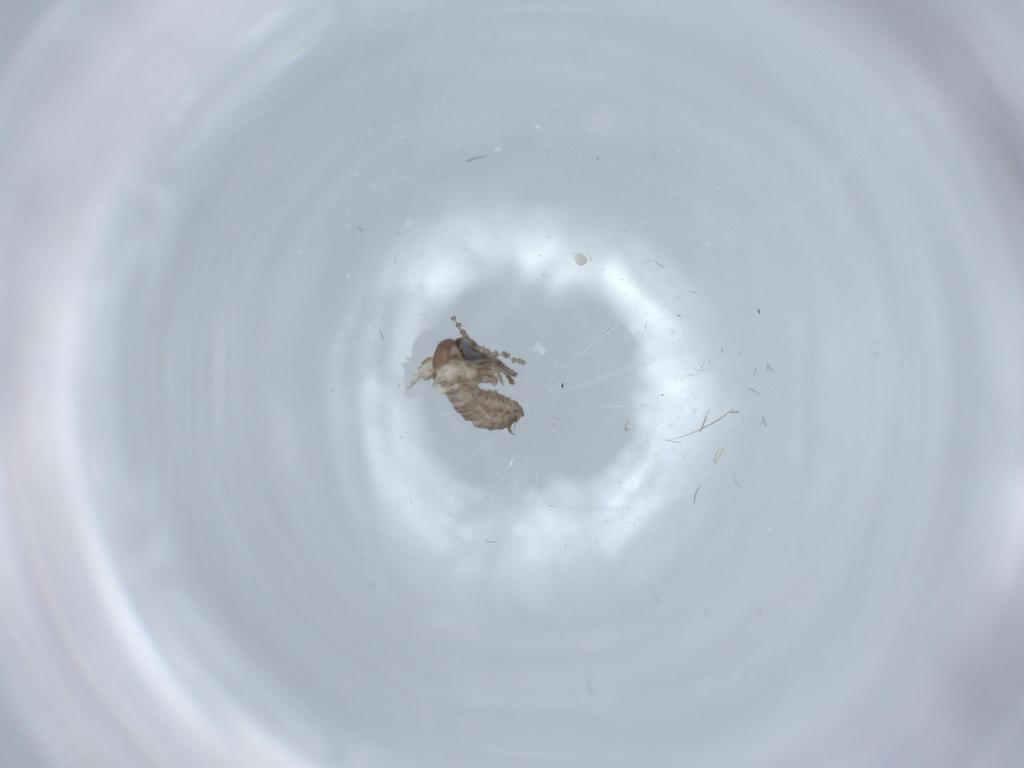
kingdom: Animalia
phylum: Arthropoda
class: Insecta
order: Diptera
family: Psychodidae
